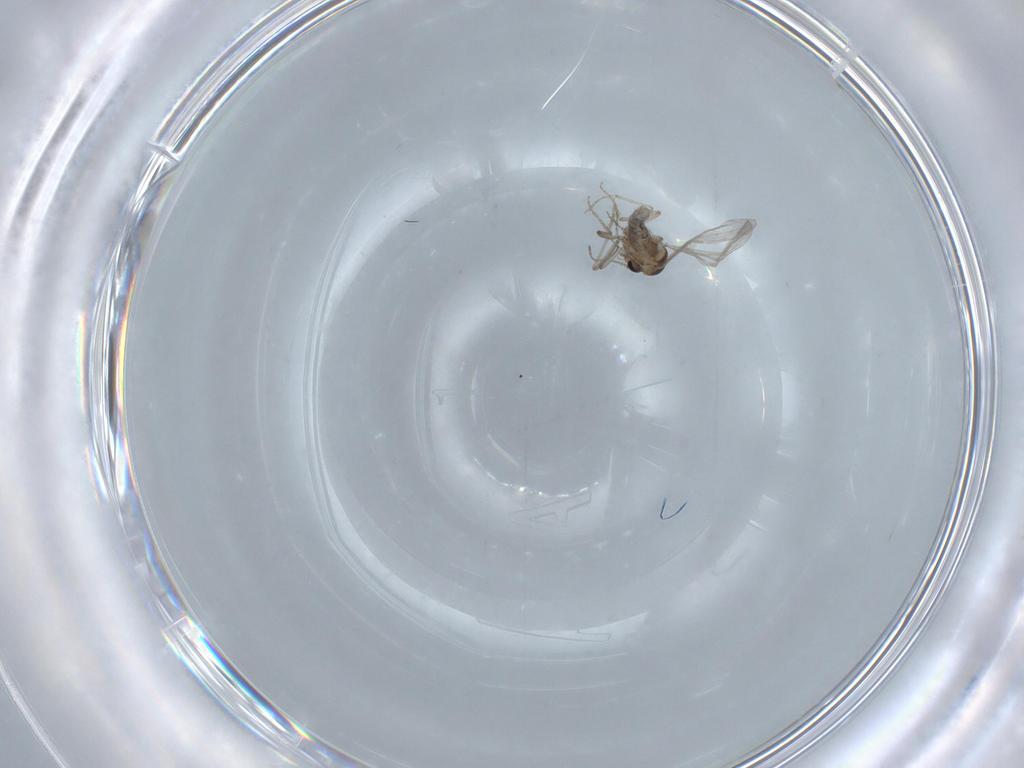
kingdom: Animalia
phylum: Arthropoda
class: Insecta
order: Diptera
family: Ceratopogonidae
